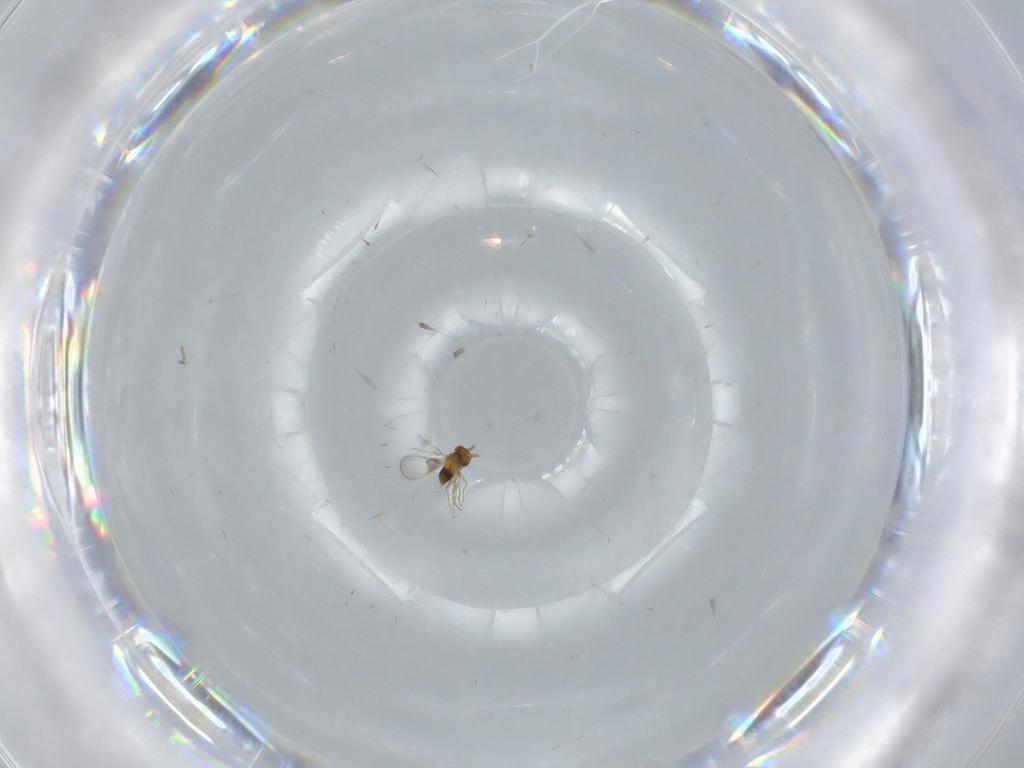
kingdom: Animalia
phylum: Arthropoda
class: Insecta
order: Hymenoptera
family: Trichogrammatidae
